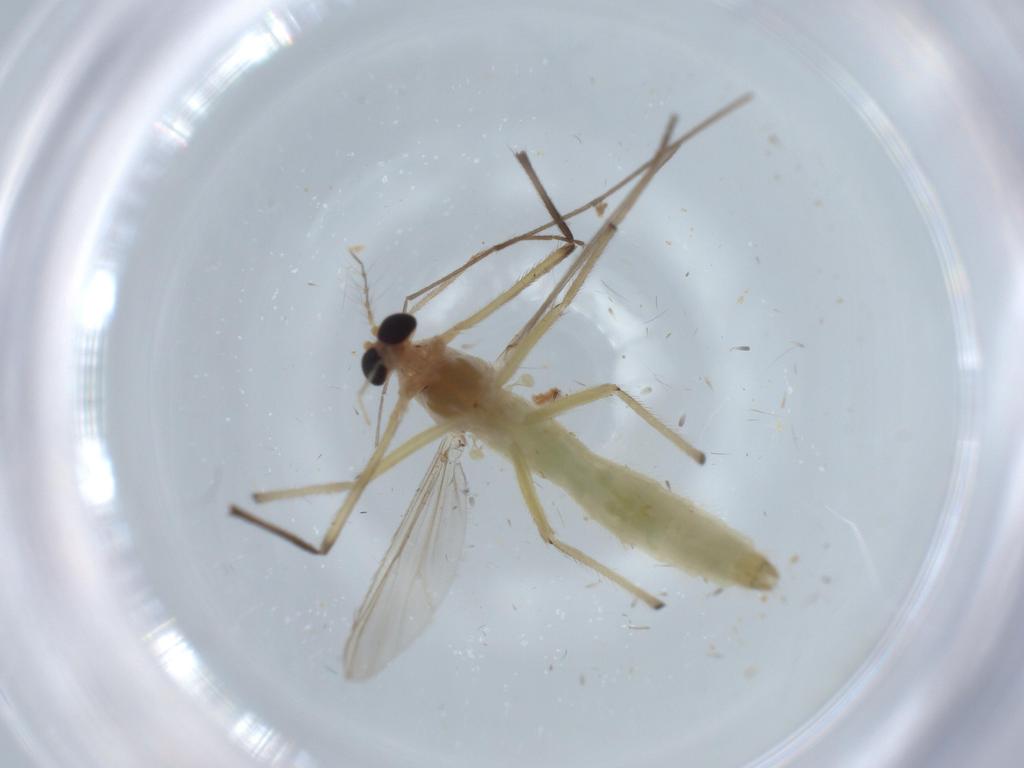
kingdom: Animalia
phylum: Arthropoda
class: Insecta
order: Diptera
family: Chironomidae
